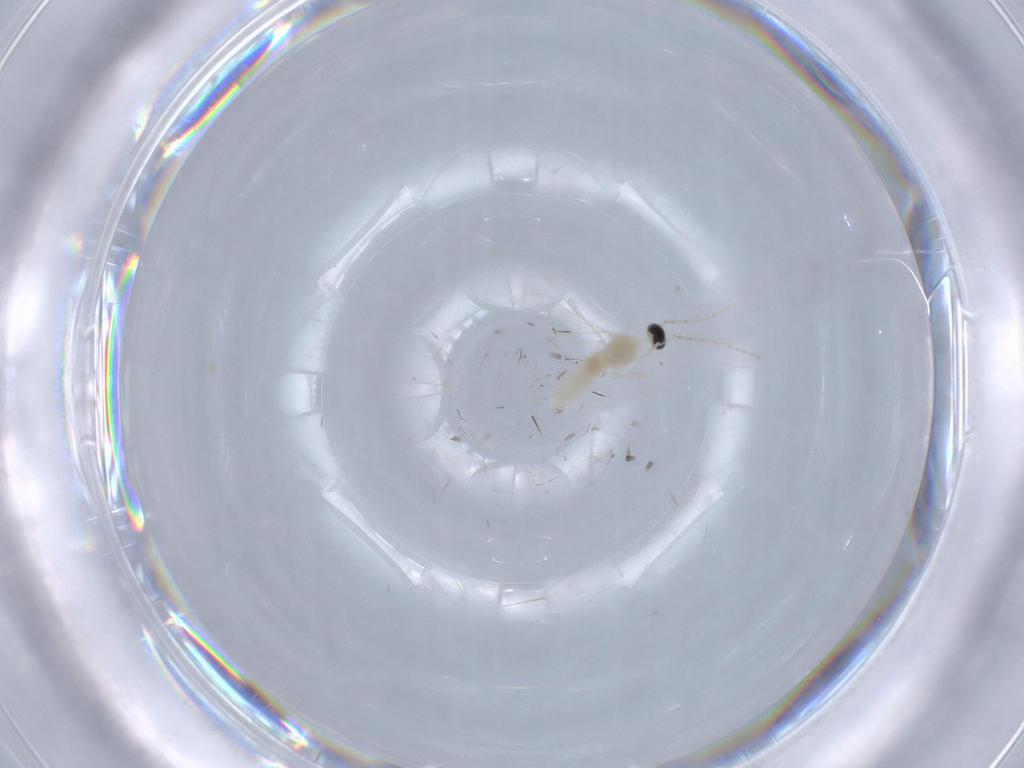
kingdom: Animalia
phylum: Arthropoda
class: Insecta
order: Diptera
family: Pipunculidae
